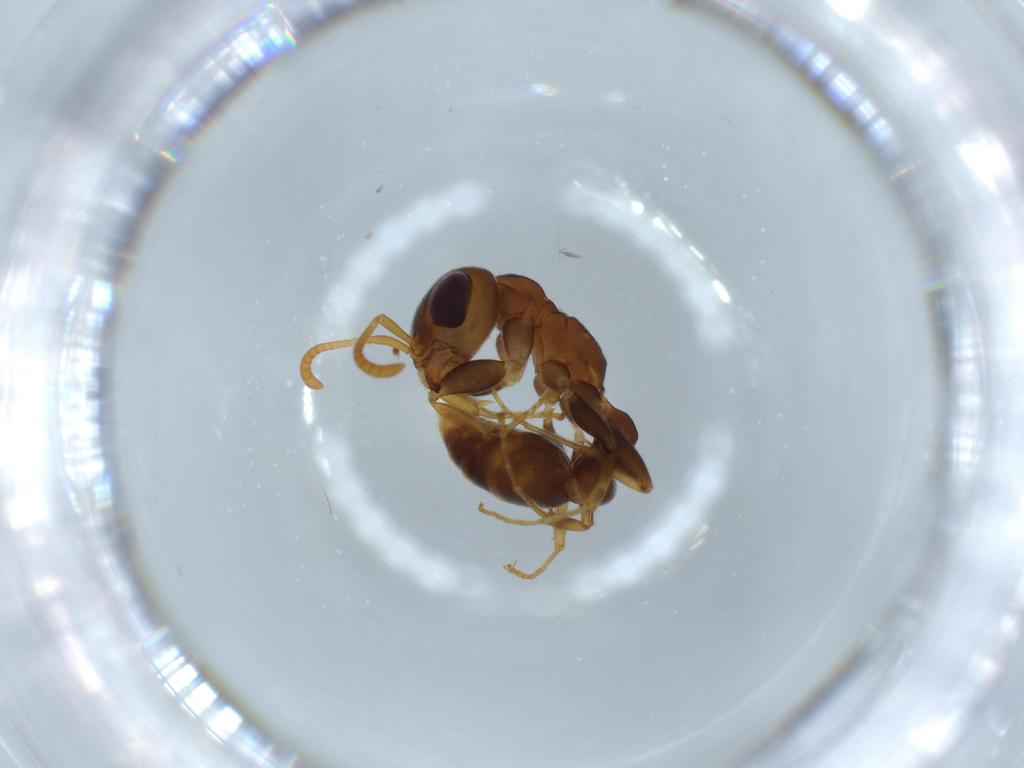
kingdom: Animalia
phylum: Arthropoda
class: Insecta
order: Hymenoptera
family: Formicidae
